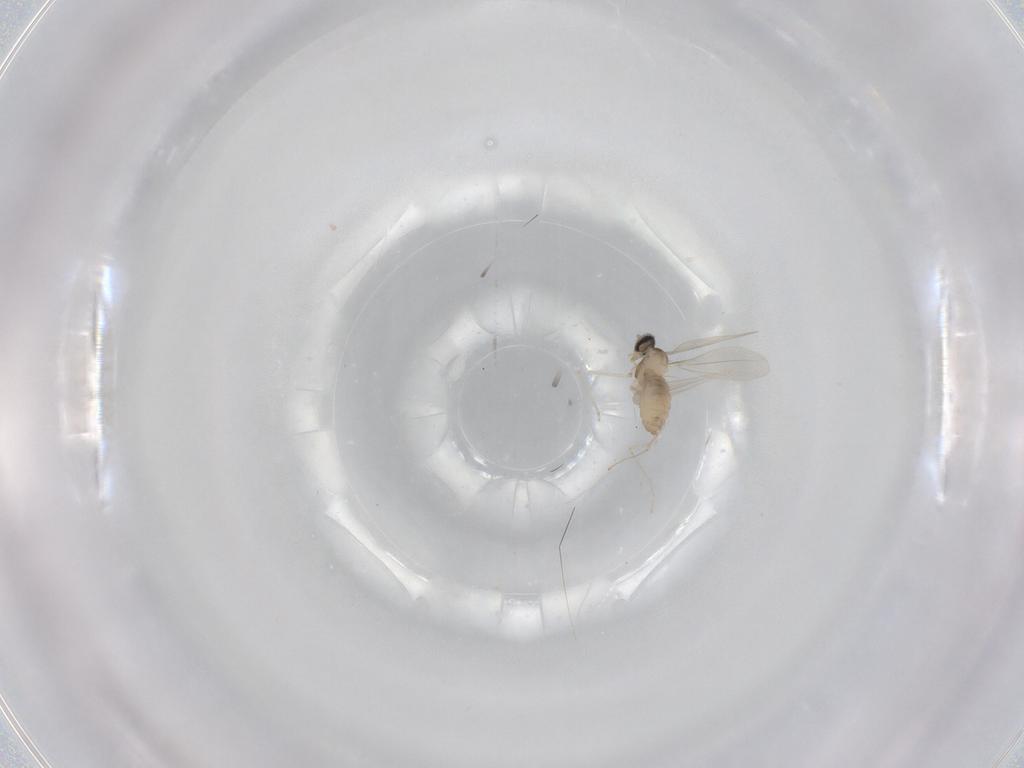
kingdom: Animalia
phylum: Arthropoda
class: Insecta
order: Diptera
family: Cecidomyiidae
